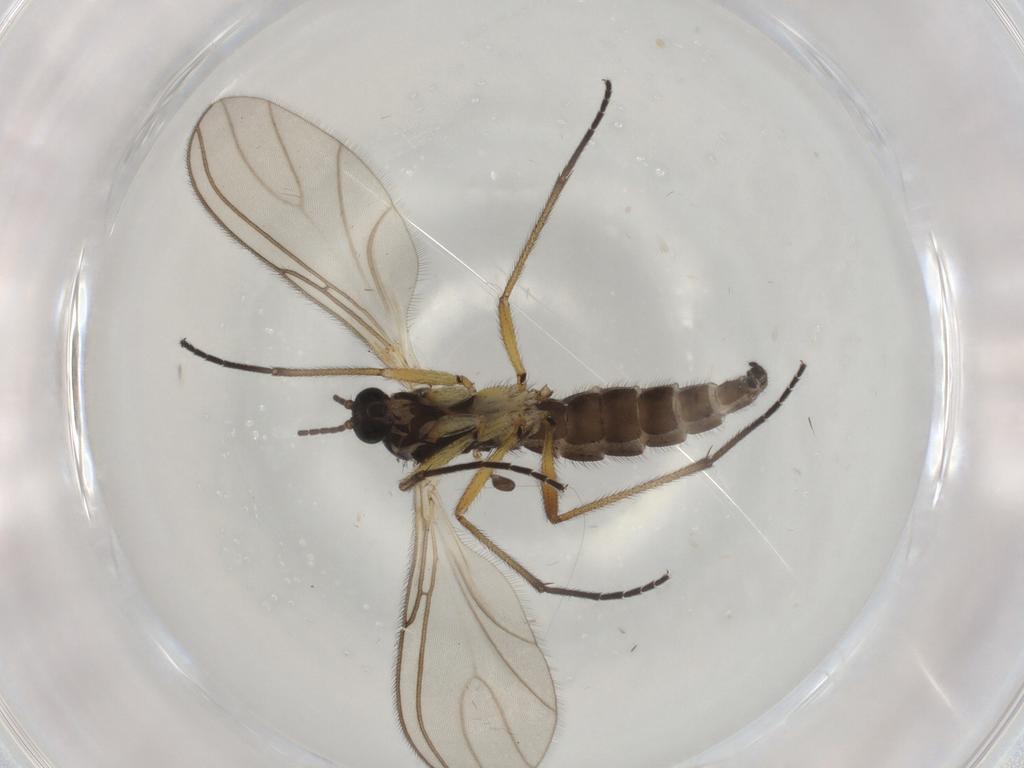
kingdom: Animalia
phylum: Arthropoda
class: Insecta
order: Diptera
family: Sciaridae
